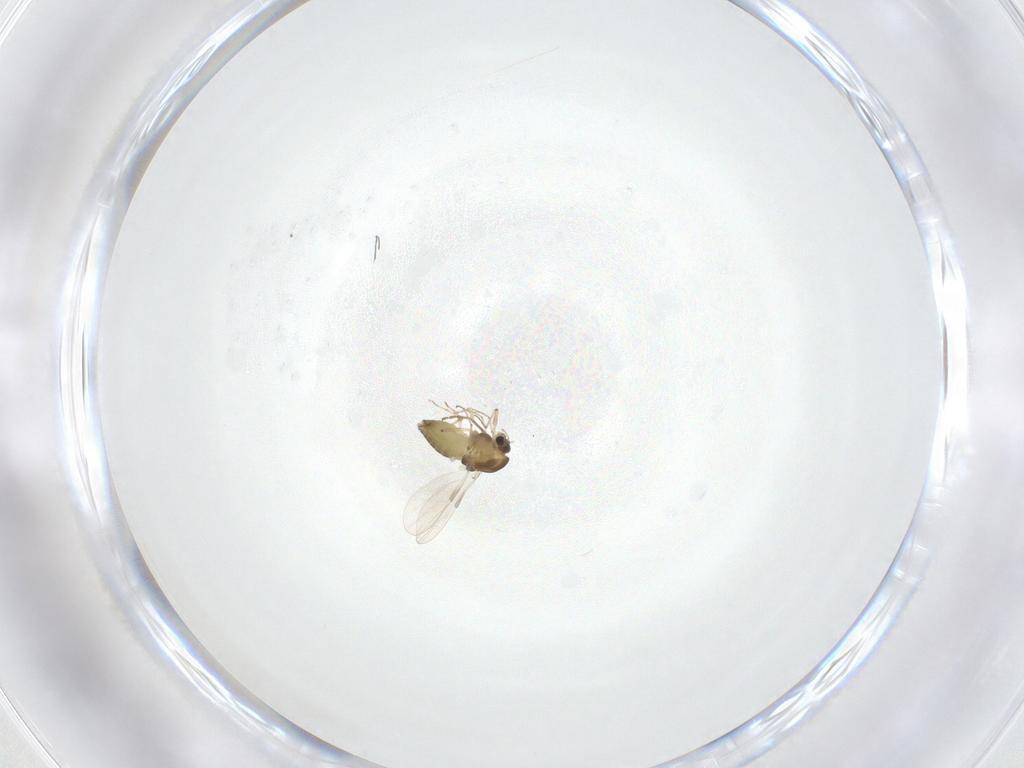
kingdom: Animalia
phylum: Arthropoda
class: Insecta
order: Diptera
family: Chironomidae
